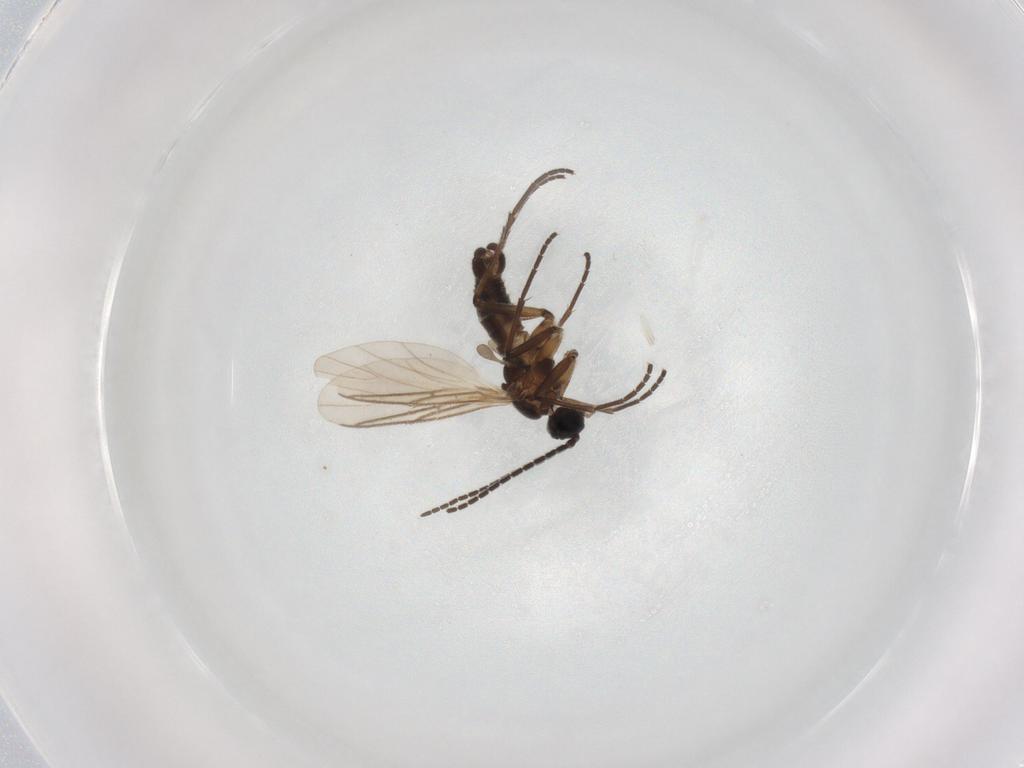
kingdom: Animalia
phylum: Arthropoda
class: Insecta
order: Diptera
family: Sciaridae
